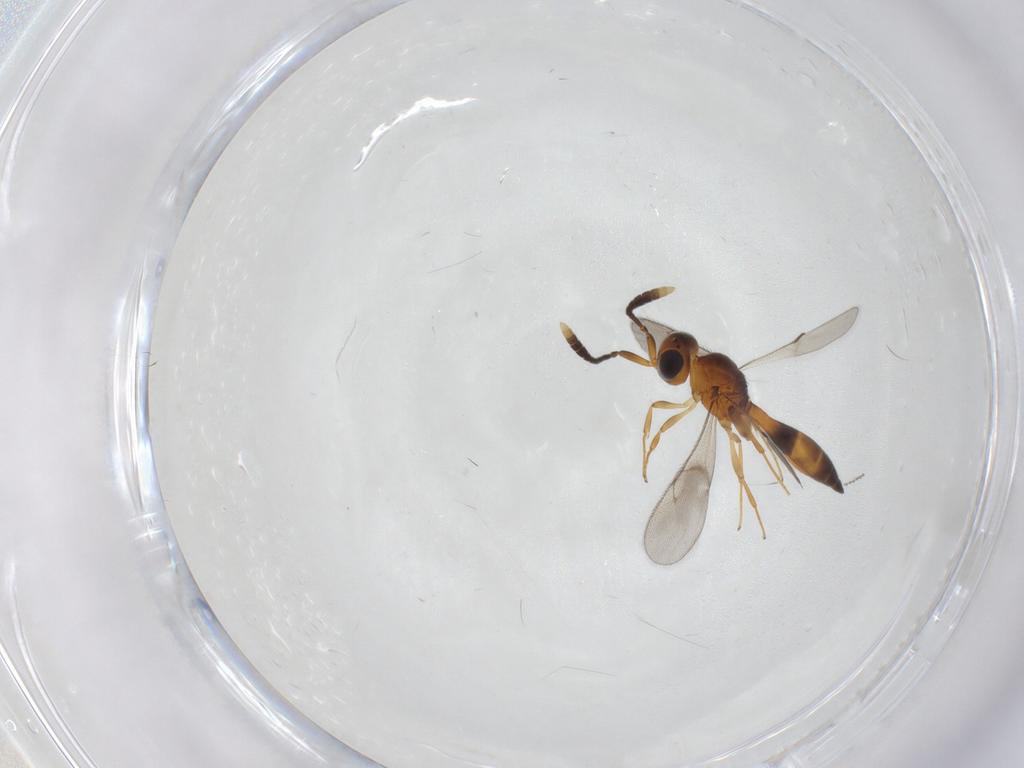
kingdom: Animalia
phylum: Arthropoda
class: Insecta
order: Hymenoptera
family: Scelionidae
